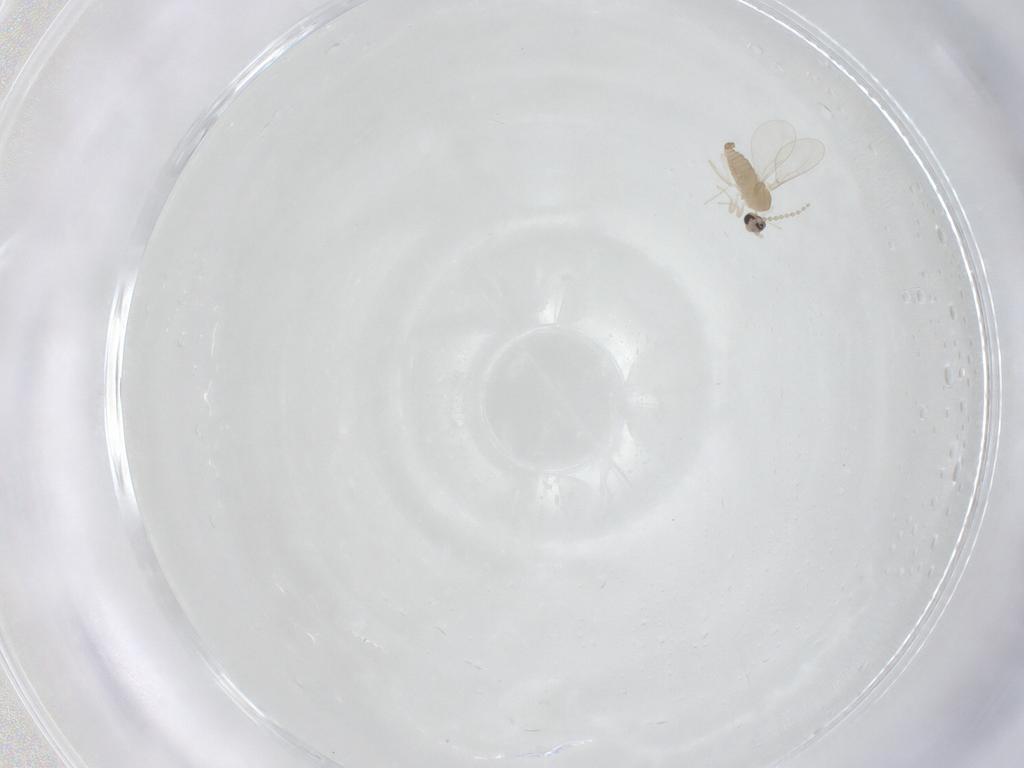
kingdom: Animalia
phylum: Arthropoda
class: Insecta
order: Diptera
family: Cecidomyiidae
